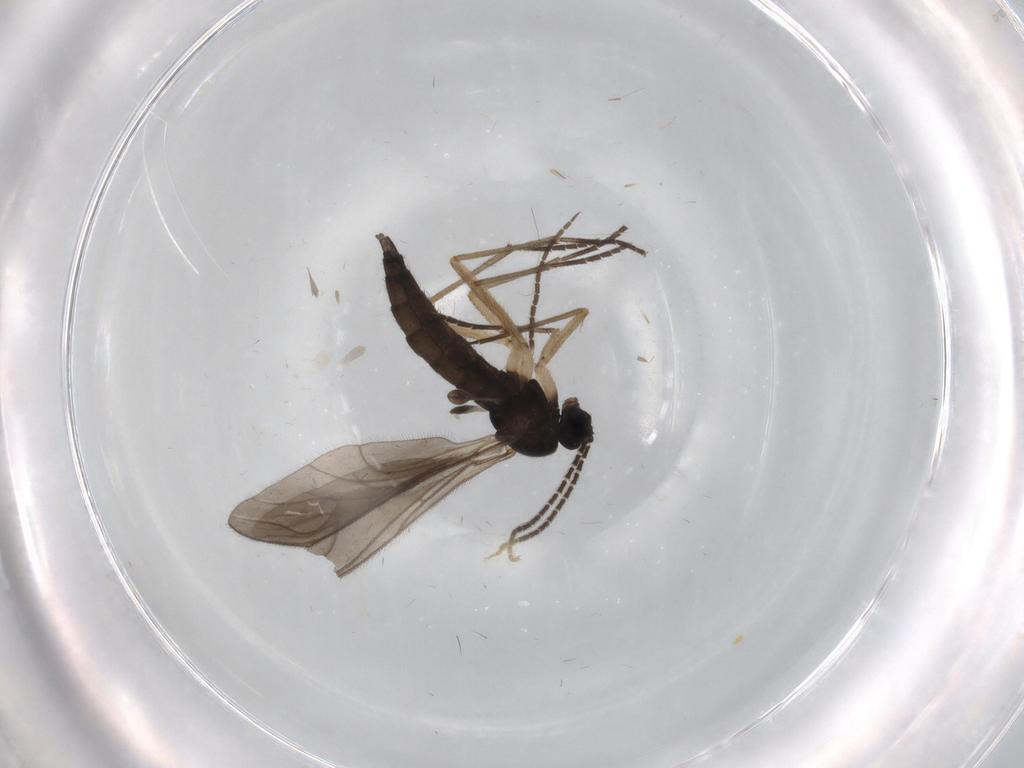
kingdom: Animalia
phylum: Arthropoda
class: Insecta
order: Diptera
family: Sciaridae
